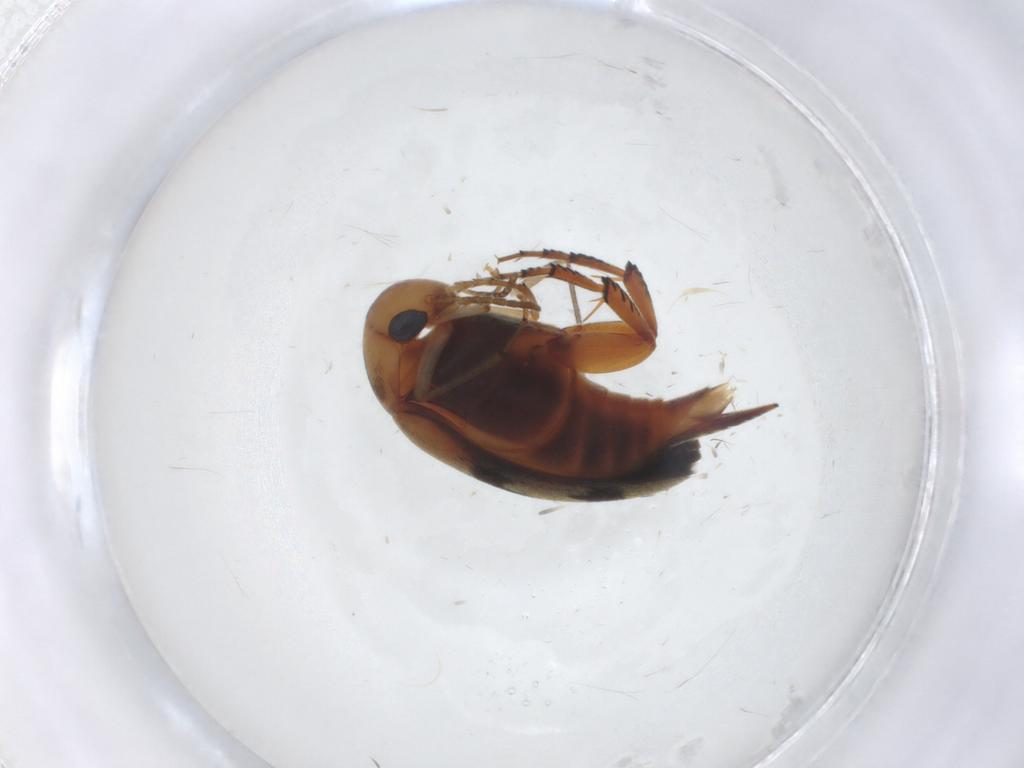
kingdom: Animalia
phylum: Arthropoda
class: Insecta
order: Coleoptera
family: Mordellidae
